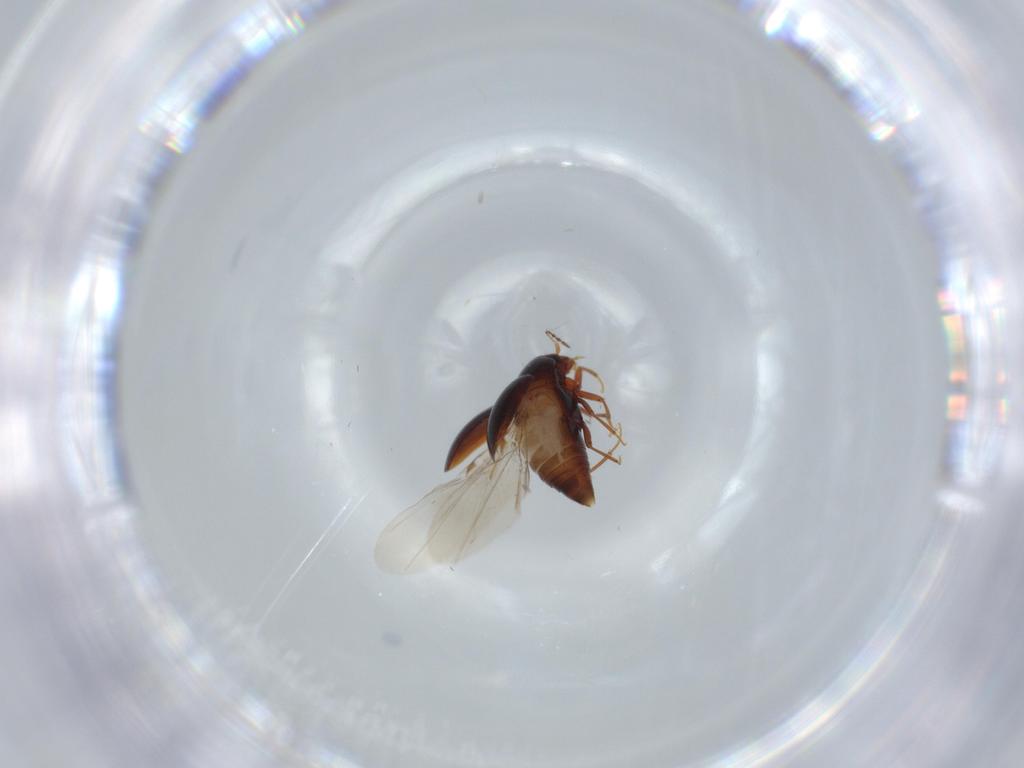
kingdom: Animalia
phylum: Arthropoda
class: Insecta
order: Coleoptera
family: Staphylinidae
